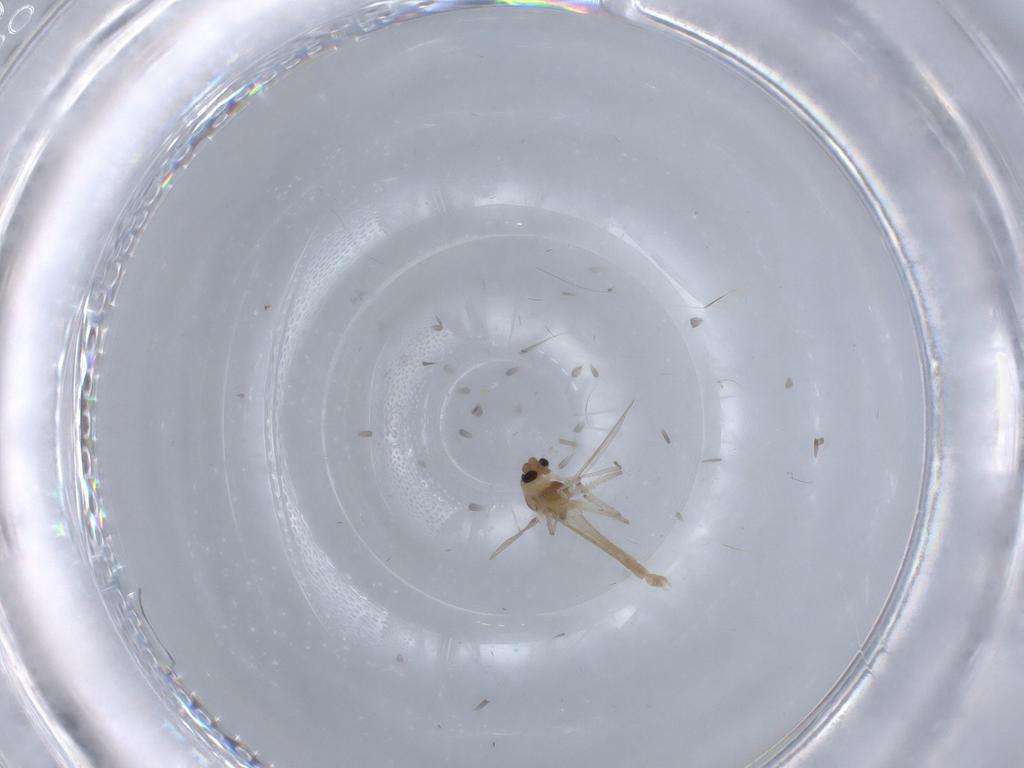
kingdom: Animalia
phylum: Arthropoda
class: Insecta
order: Diptera
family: Chironomidae
